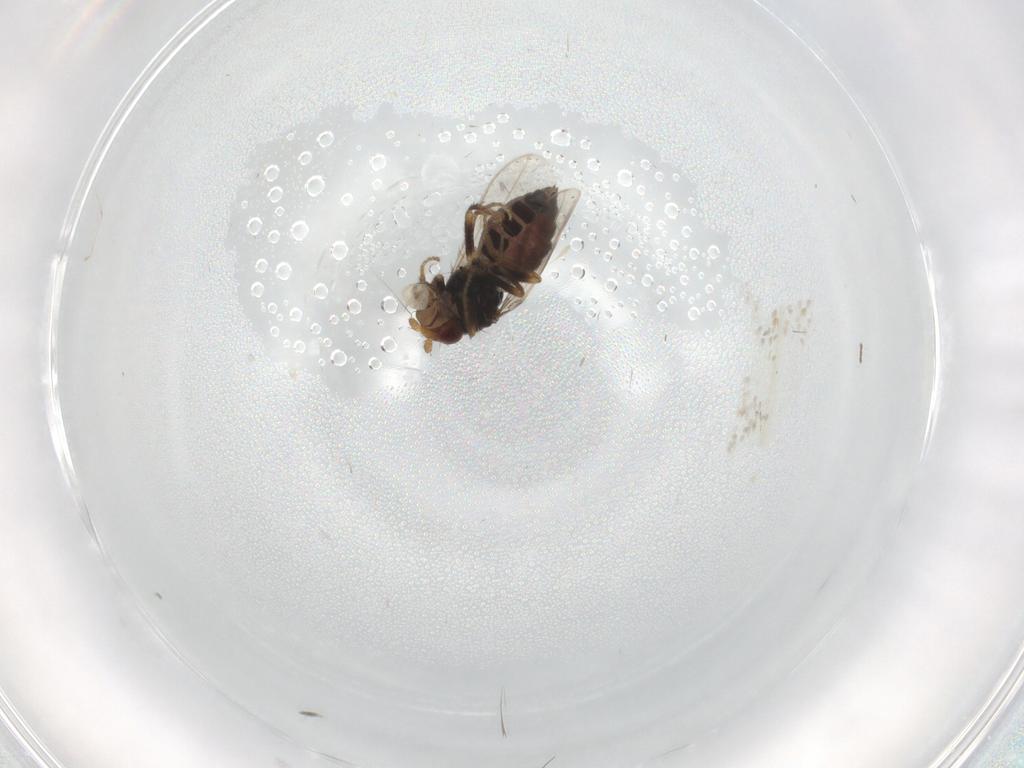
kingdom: Animalia
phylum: Arthropoda
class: Insecta
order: Diptera
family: Sphaeroceridae
